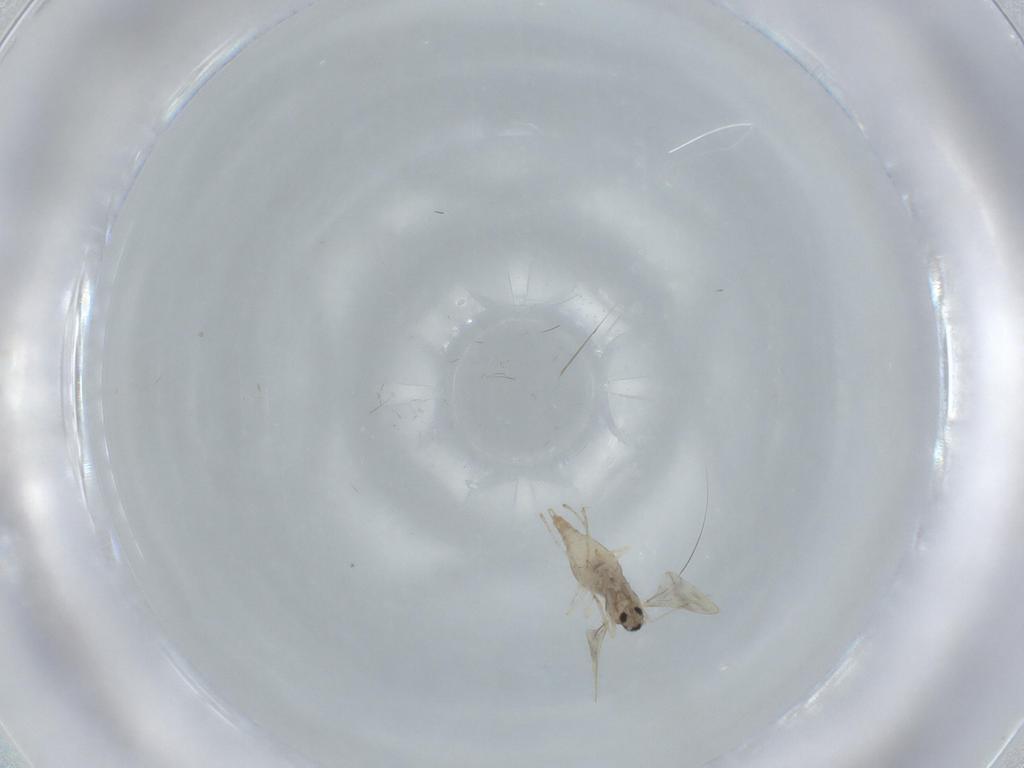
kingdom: Animalia
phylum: Arthropoda
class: Insecta
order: Diptera
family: Cecidomyiidae
